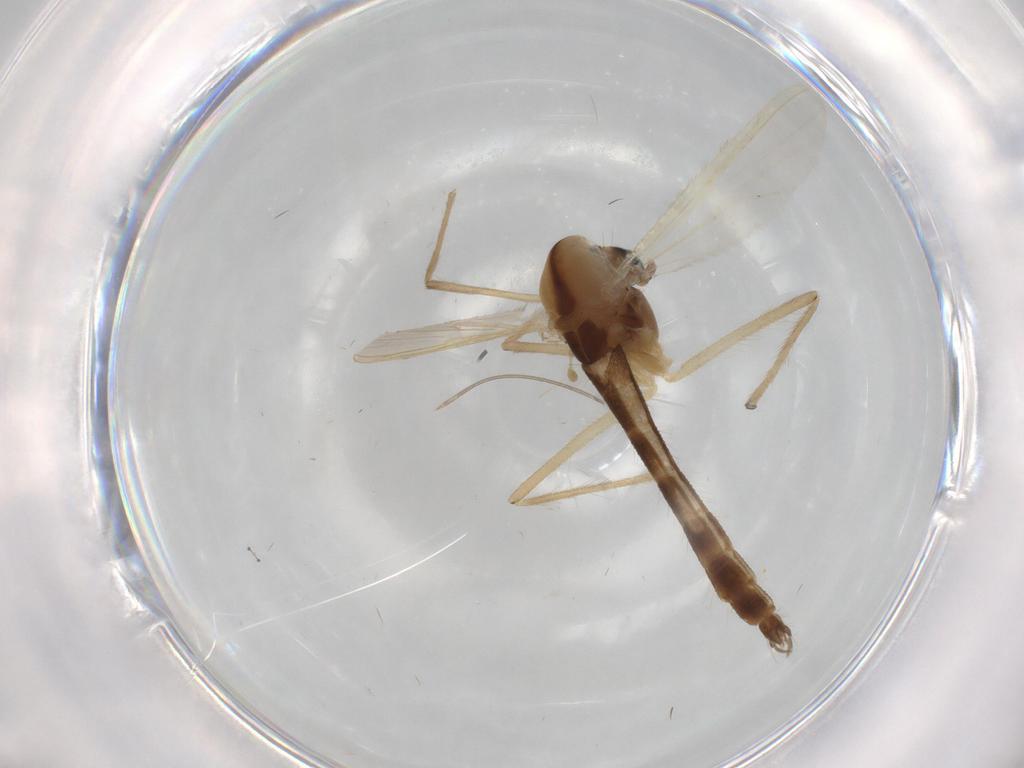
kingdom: Animalia
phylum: Arthropoda
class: Insecta
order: Diptera
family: Chironomidae
